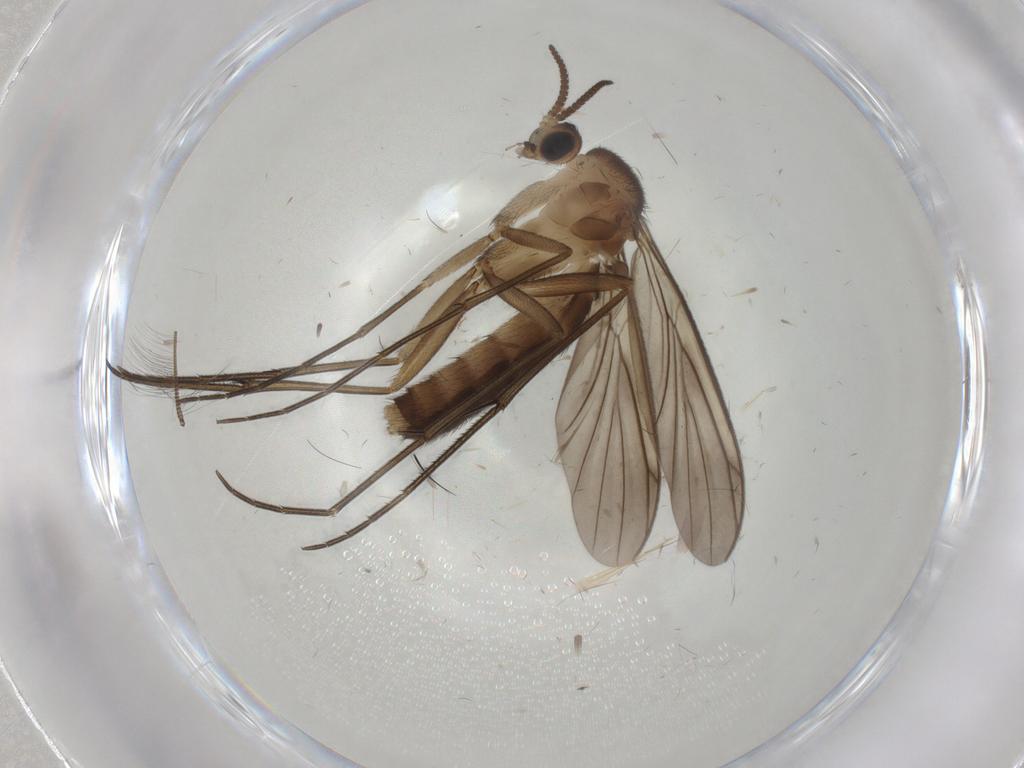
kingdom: Animalia
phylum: Arthropoda
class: Insecta
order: Diptera
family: Mycetophilidae
